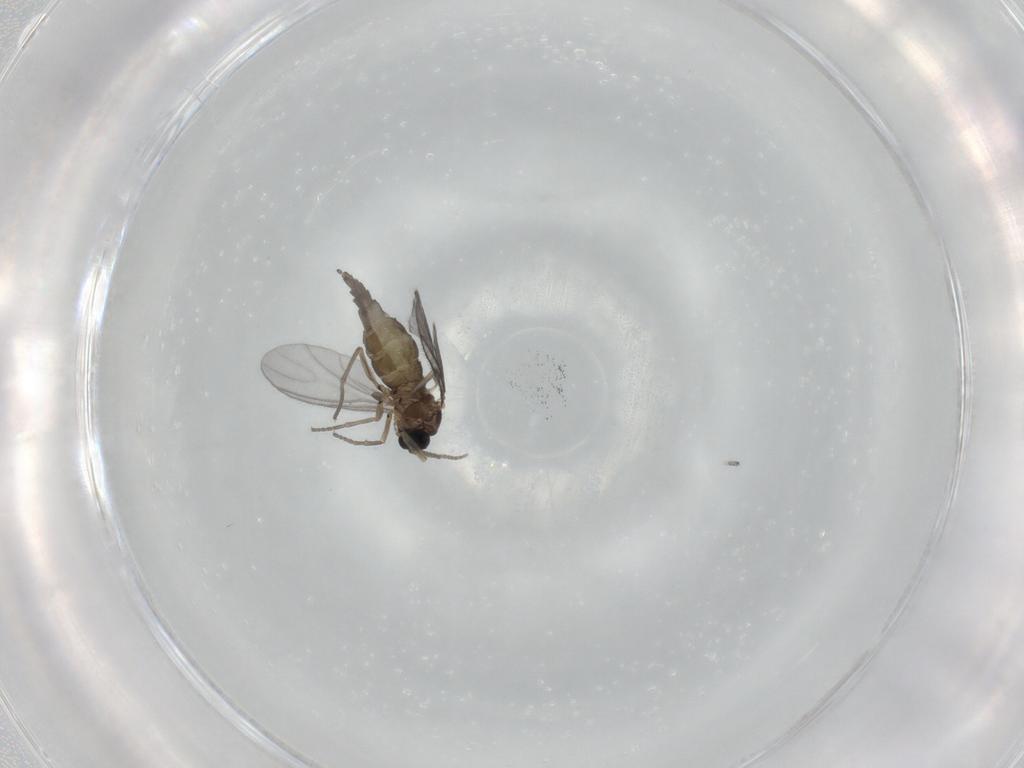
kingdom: Animalia
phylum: Arthropoda
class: Insecta
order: Diptera
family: Sciaridae
